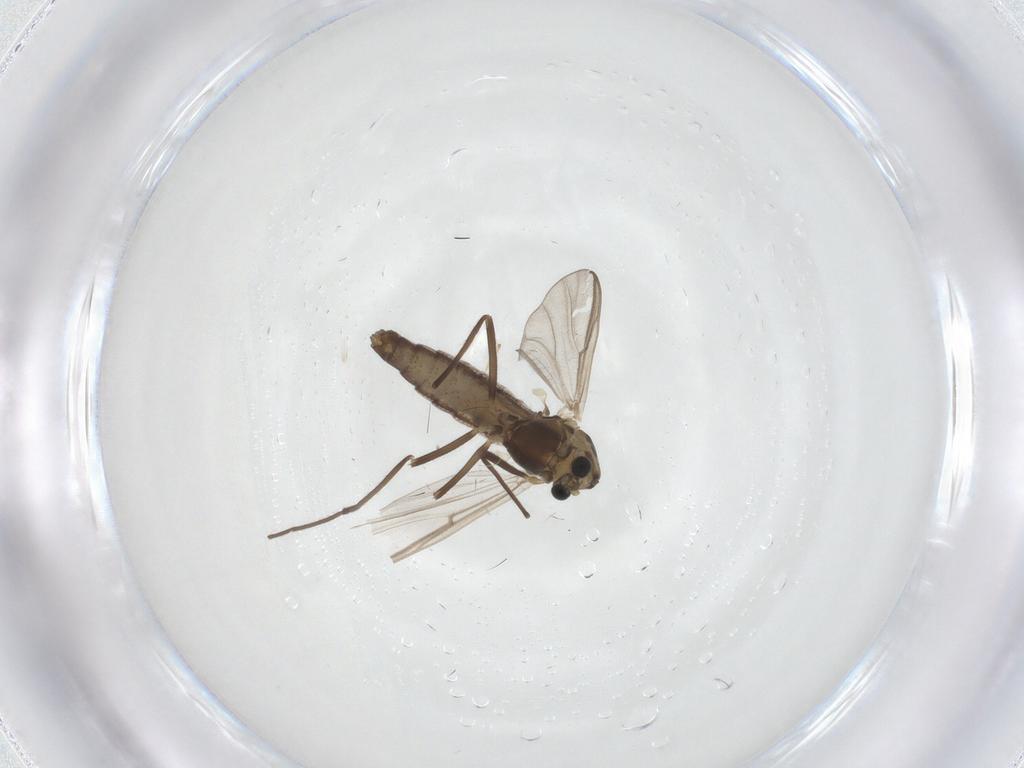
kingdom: Animalia
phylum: Arthropoda
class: Insecta
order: Diptera
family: Chironomidae
